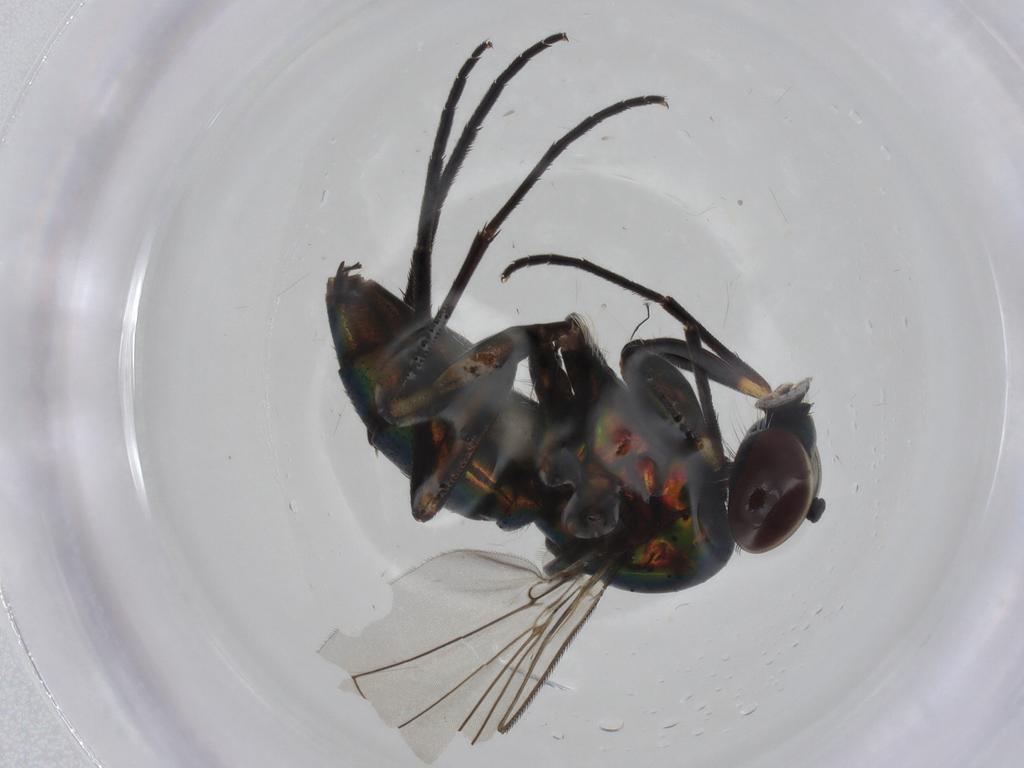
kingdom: Animalia
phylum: Arthropoda
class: Insecta
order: Diptera
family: Dolichopodidae
